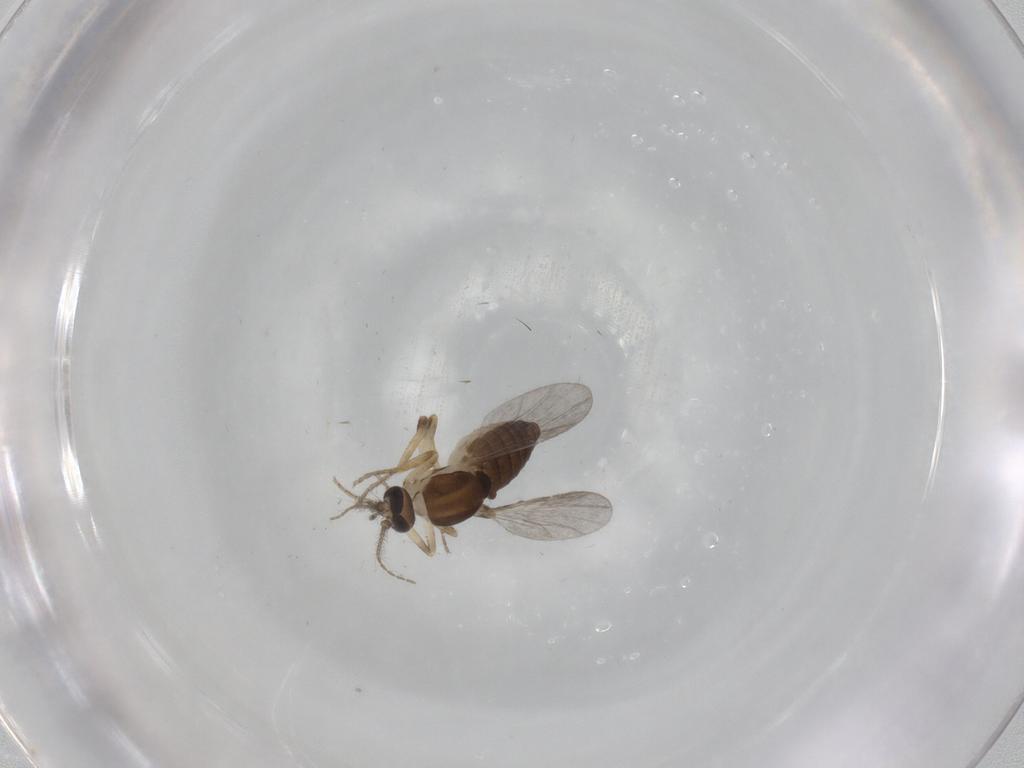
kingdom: Animalia
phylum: Arthropoda
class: Insecta
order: Diptera
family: Ceratopogonidae
